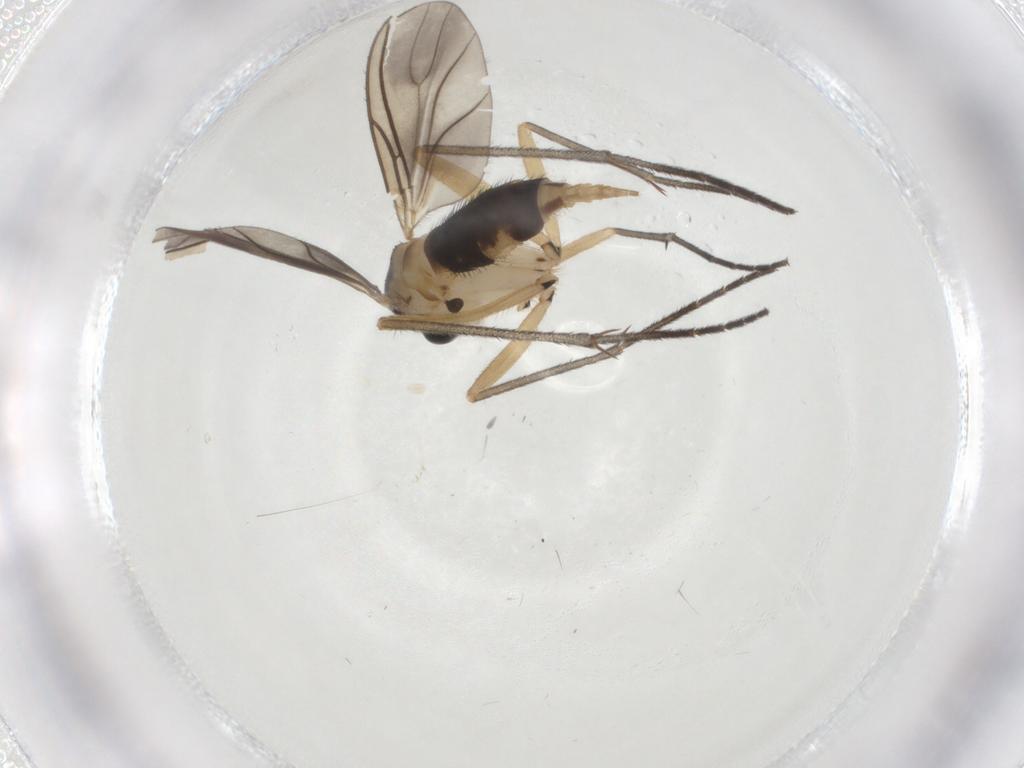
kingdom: Animalia
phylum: Arthropoda
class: Insecta
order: Diptera
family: Sciaridae
